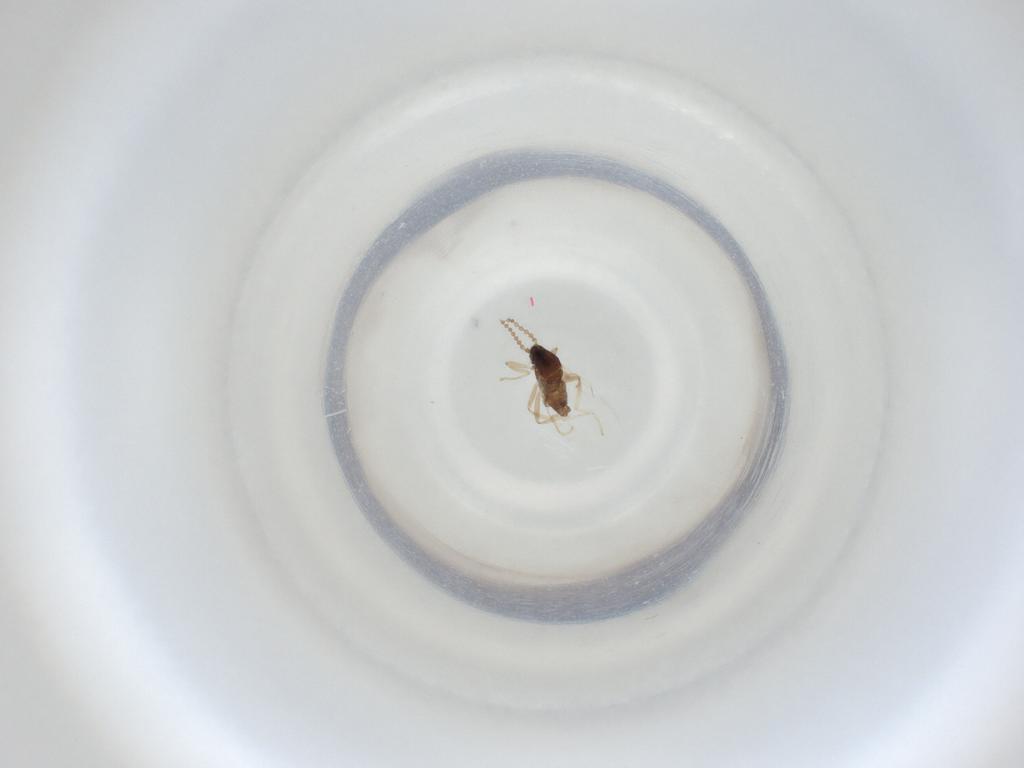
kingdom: Animalia
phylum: Arthropoda
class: Insecta
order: Diptera
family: Cecidomyiidae
